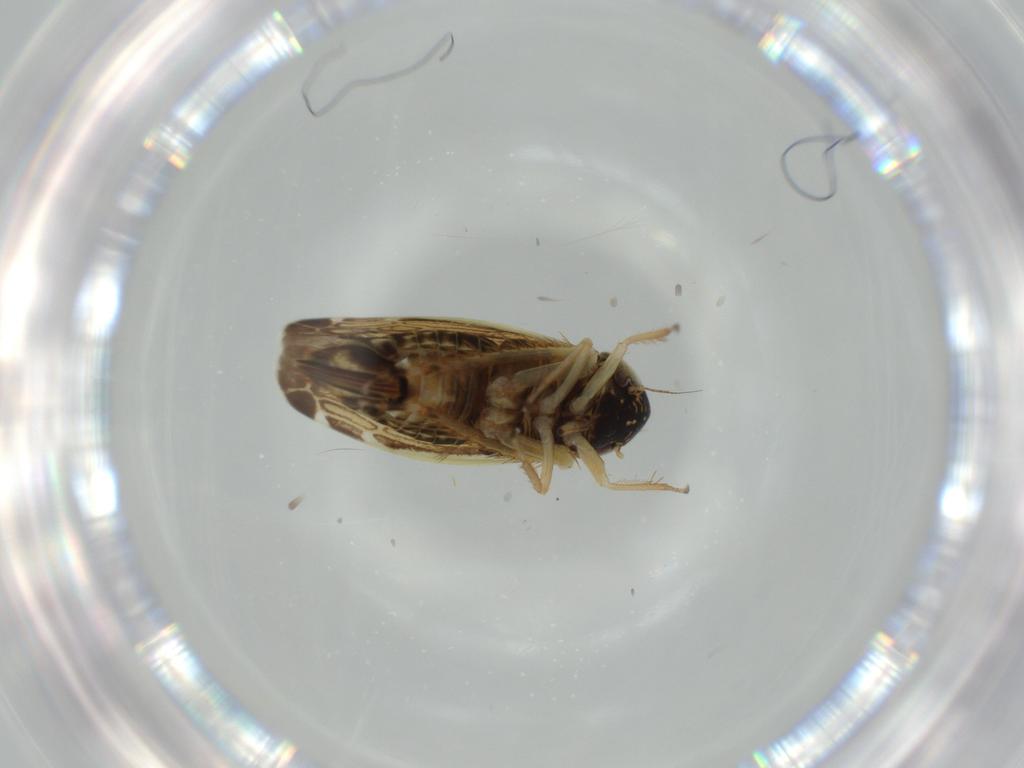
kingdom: Animalia
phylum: Arthropoda
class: Insecta
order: Hemiptera
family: Cicadellidae
